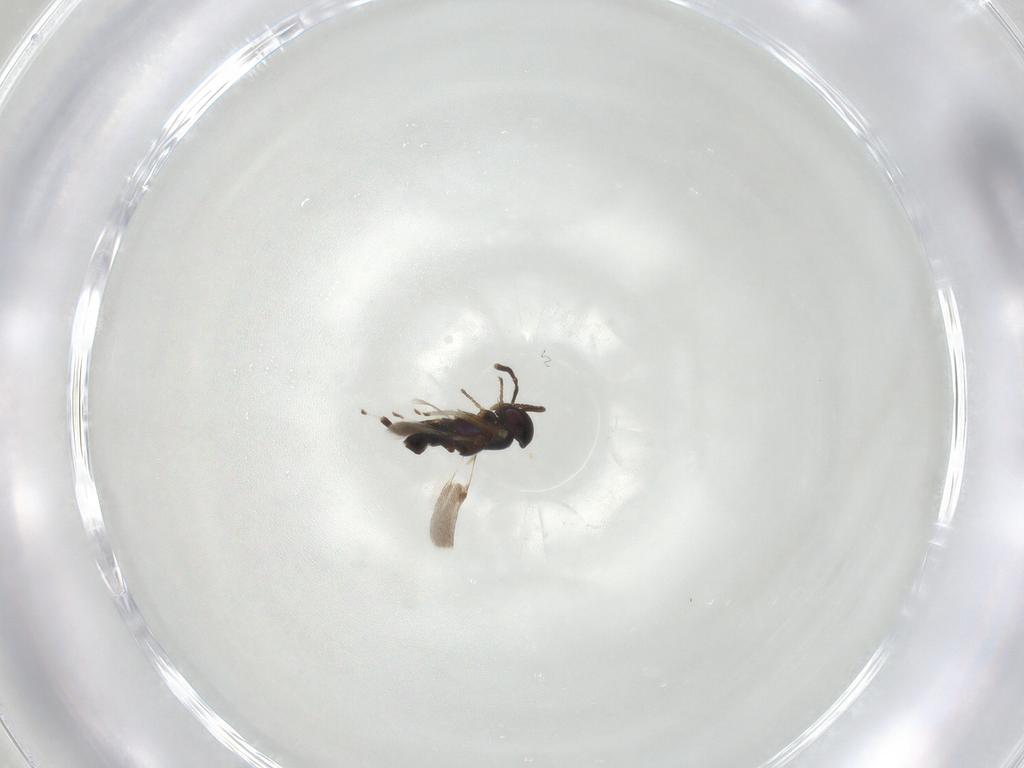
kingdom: Animalia
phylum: Arthropoda
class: Insecta
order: Hymenoptera
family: Encyrtidae
